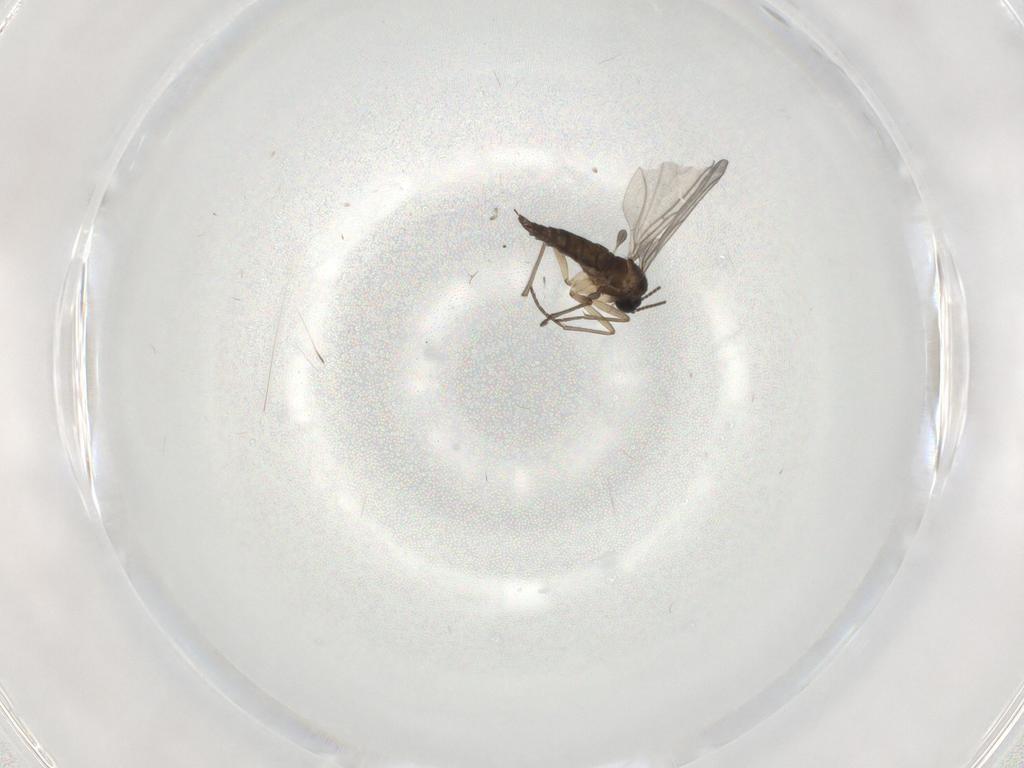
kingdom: Animalia
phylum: Arthropoda
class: Insecta
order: Diptera
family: Sciaridae
